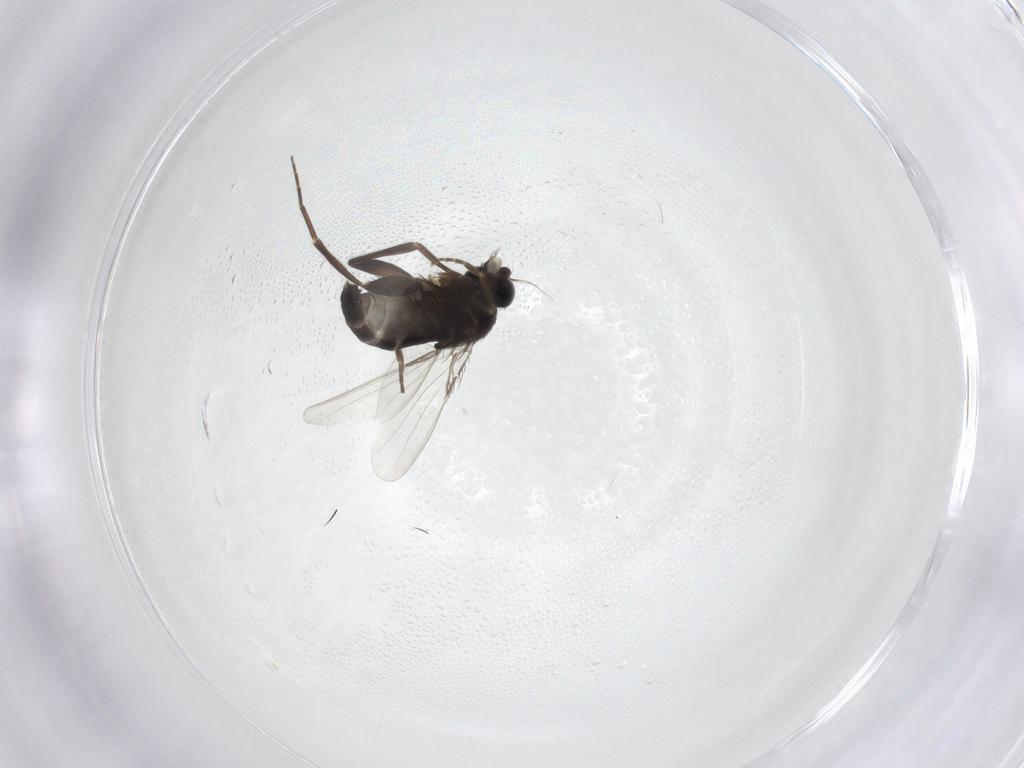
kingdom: Animalia
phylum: Arthropoda
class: Insecta
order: Diptera
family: Phoridae
